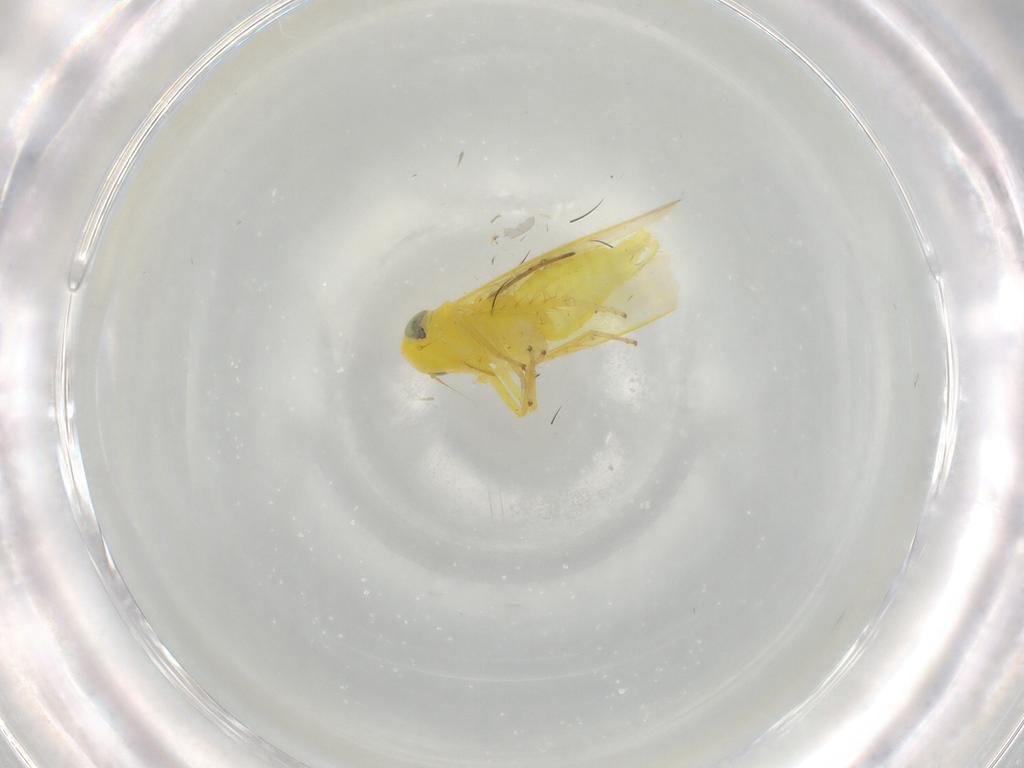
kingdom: Animalia
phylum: Arthropoda
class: Insecta
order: Hemiptera
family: Cicadellidae
